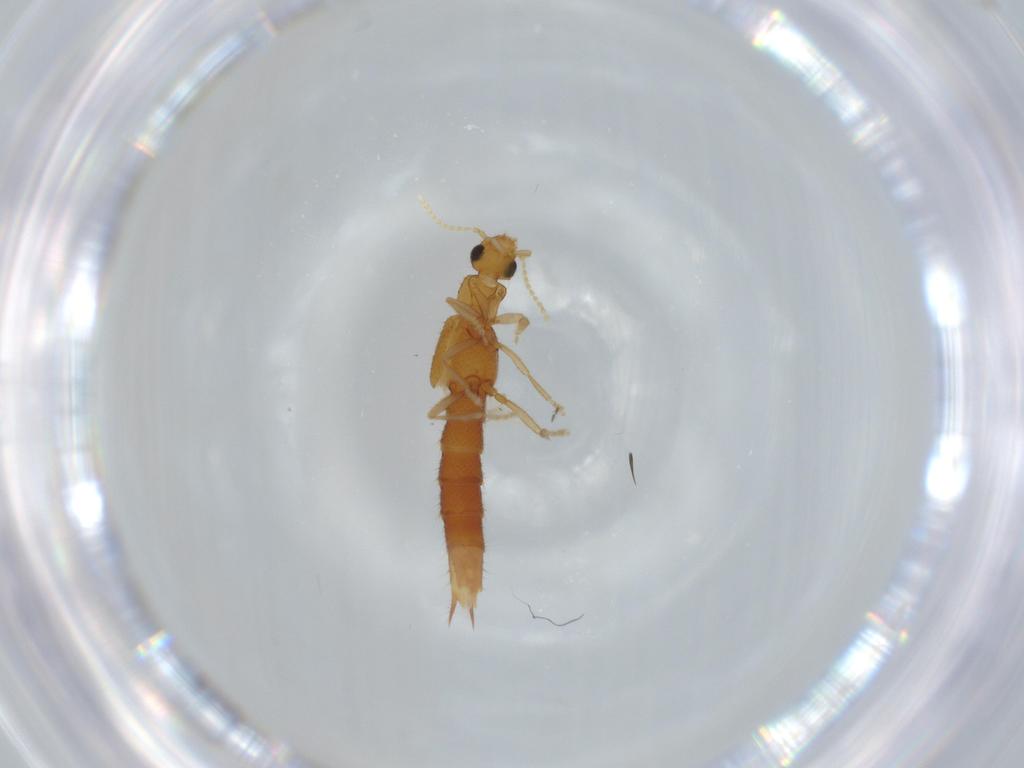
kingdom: Animalia
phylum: Arthropoda
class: Insecta
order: Coleoptera
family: Staphylinidae
